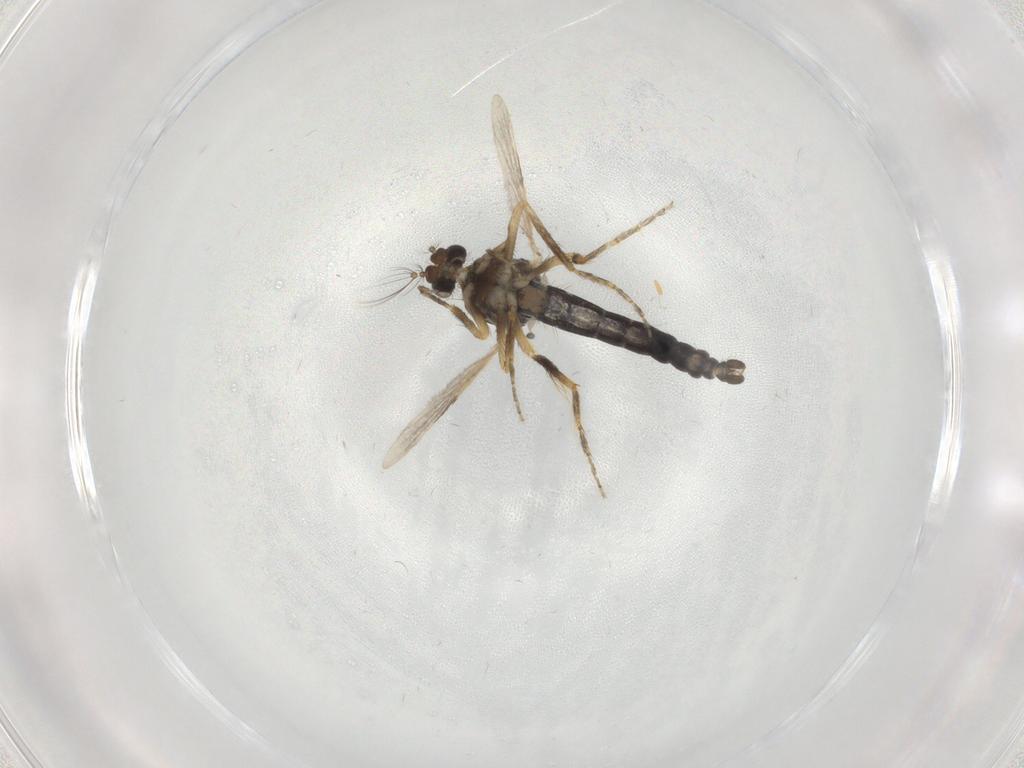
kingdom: Animalia
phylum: Arthropoda
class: Insecta
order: Diptera
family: Ceratopogonidae
